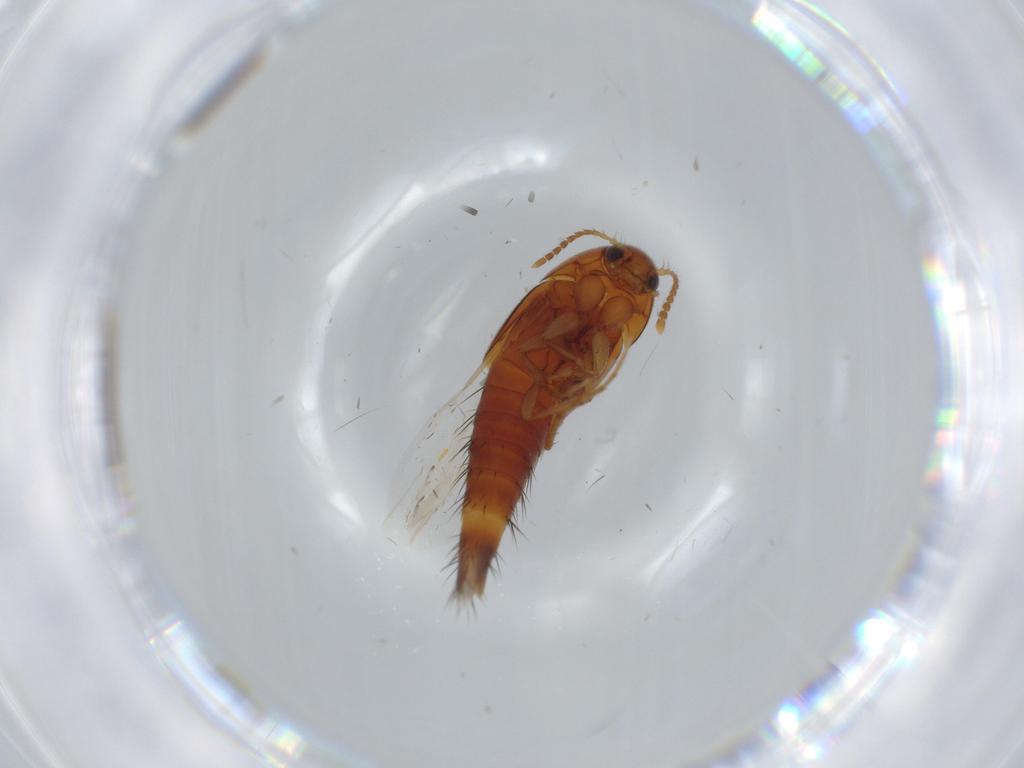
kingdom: Animalia
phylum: Arthropoda
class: Insecta
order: Coleoptera
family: Staphylinidae
